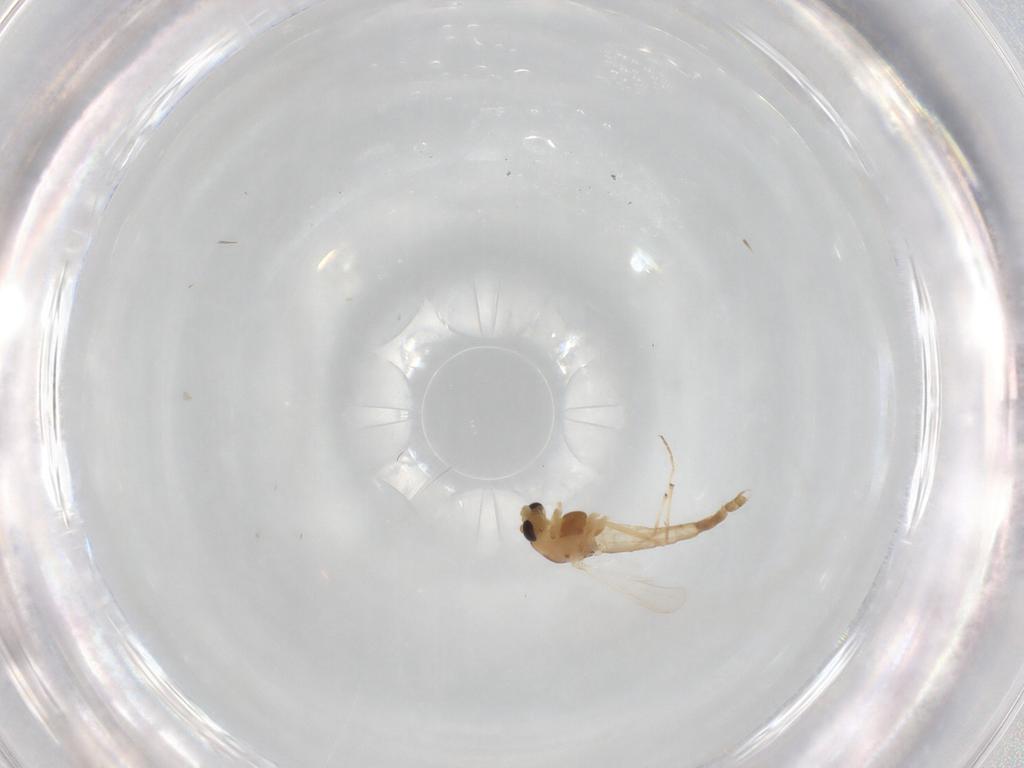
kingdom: Animalia
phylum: Arthropoda
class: Insecta
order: Diptera
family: Chironomidae
